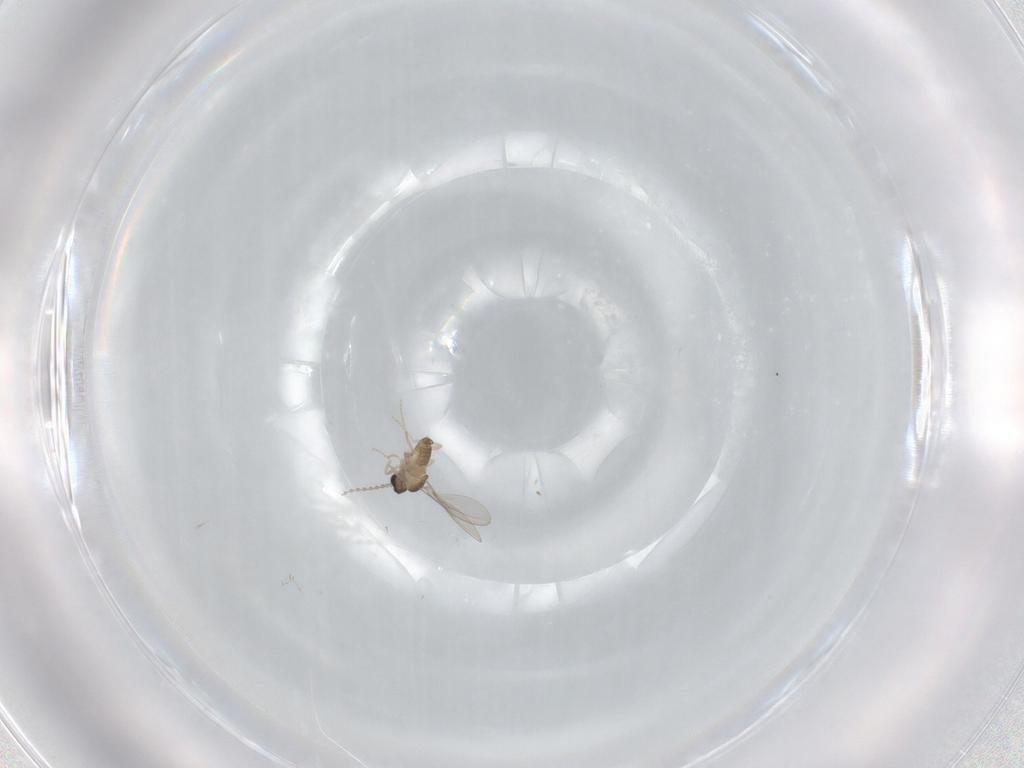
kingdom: Animalia
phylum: Arthropoda
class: Insecta
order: Diptera
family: Cecidomyiidae
